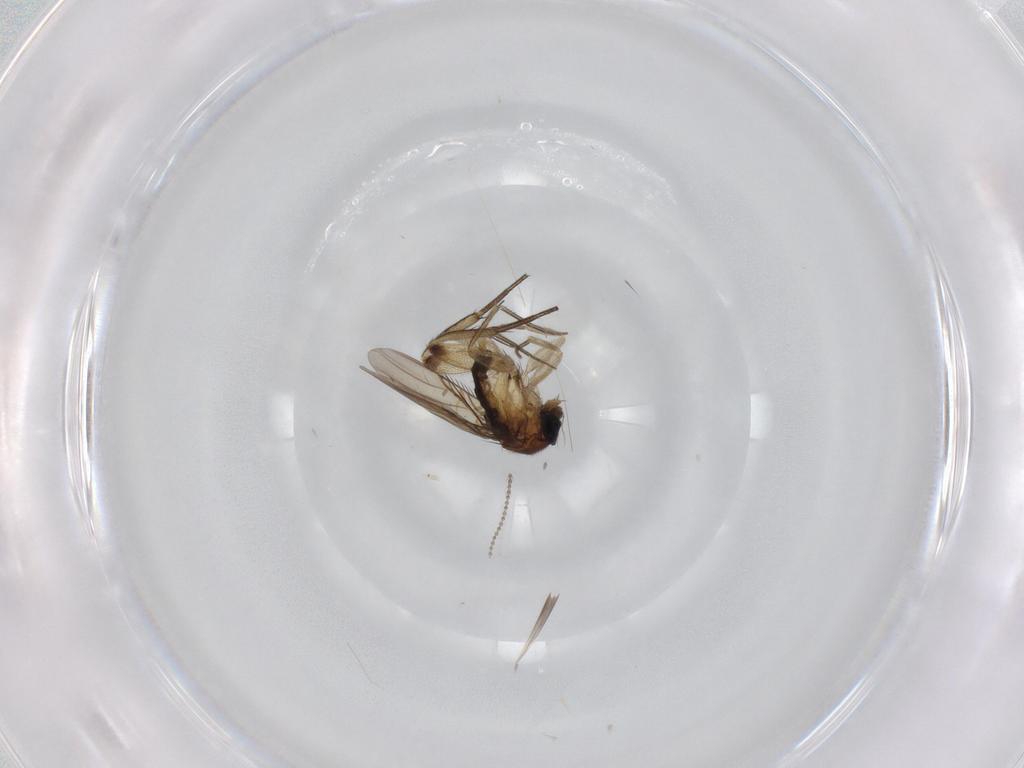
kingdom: Animalia
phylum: Arthropoda
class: Insecta
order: Diptera
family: Phoridae
